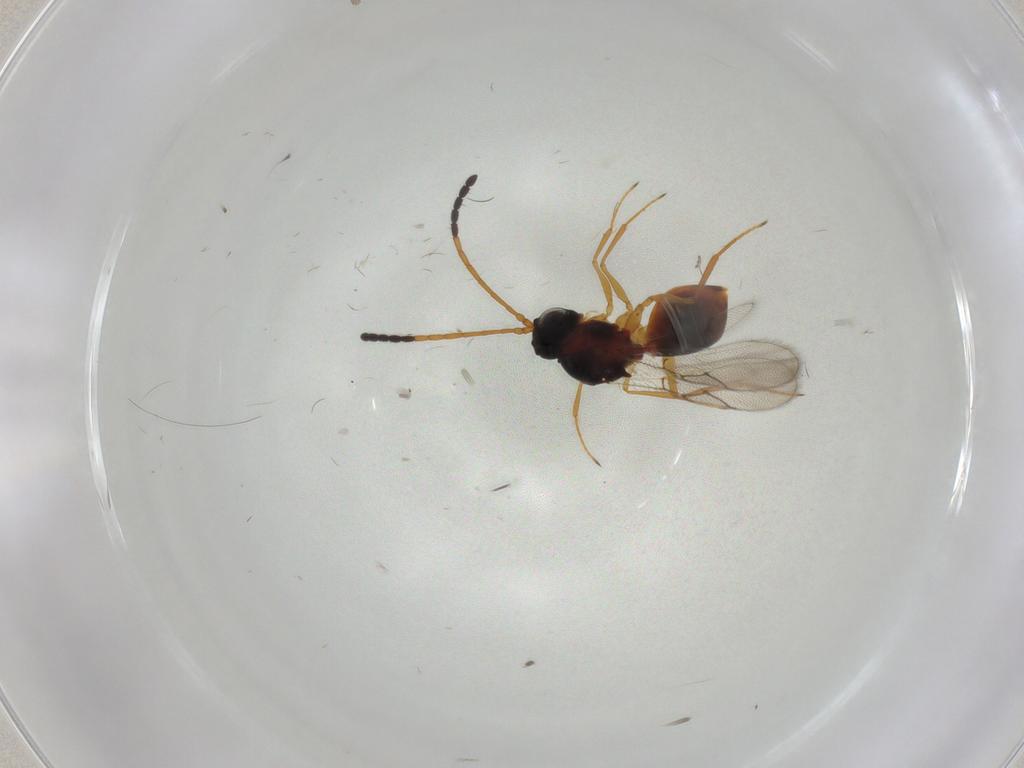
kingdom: Animalia
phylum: Arthropoda
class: Insecta
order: Hymenoptera
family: Figitidae
